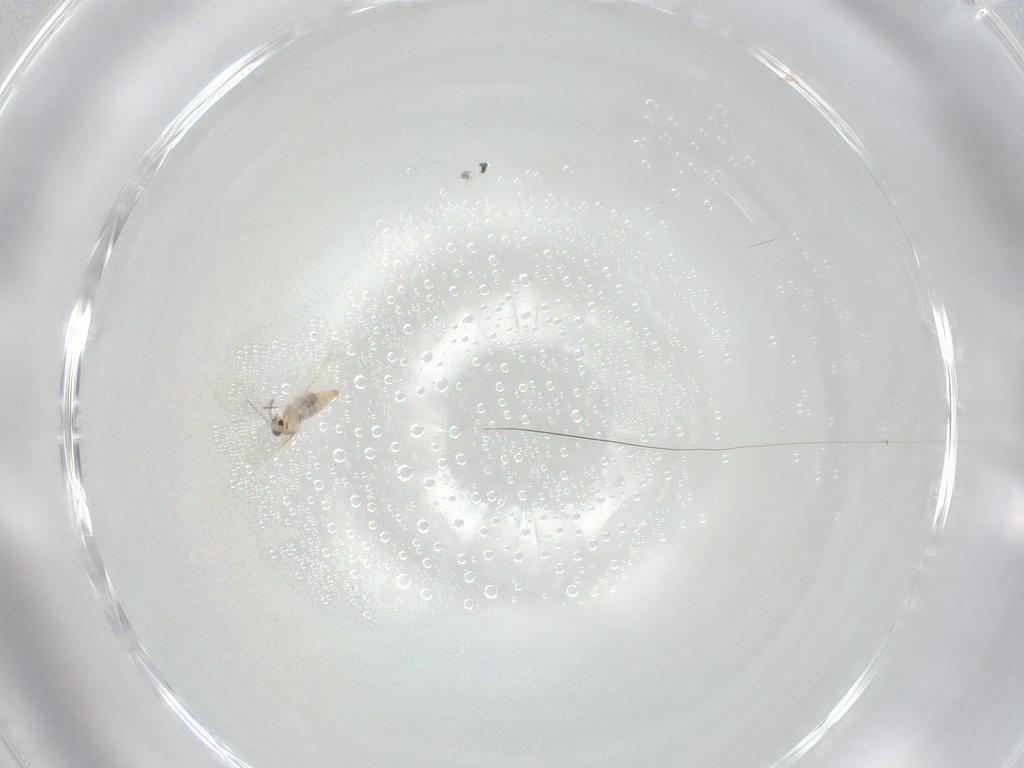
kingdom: Animalia
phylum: Arthropoda
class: Insecta
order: Diptera
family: Cecidomyiidae
